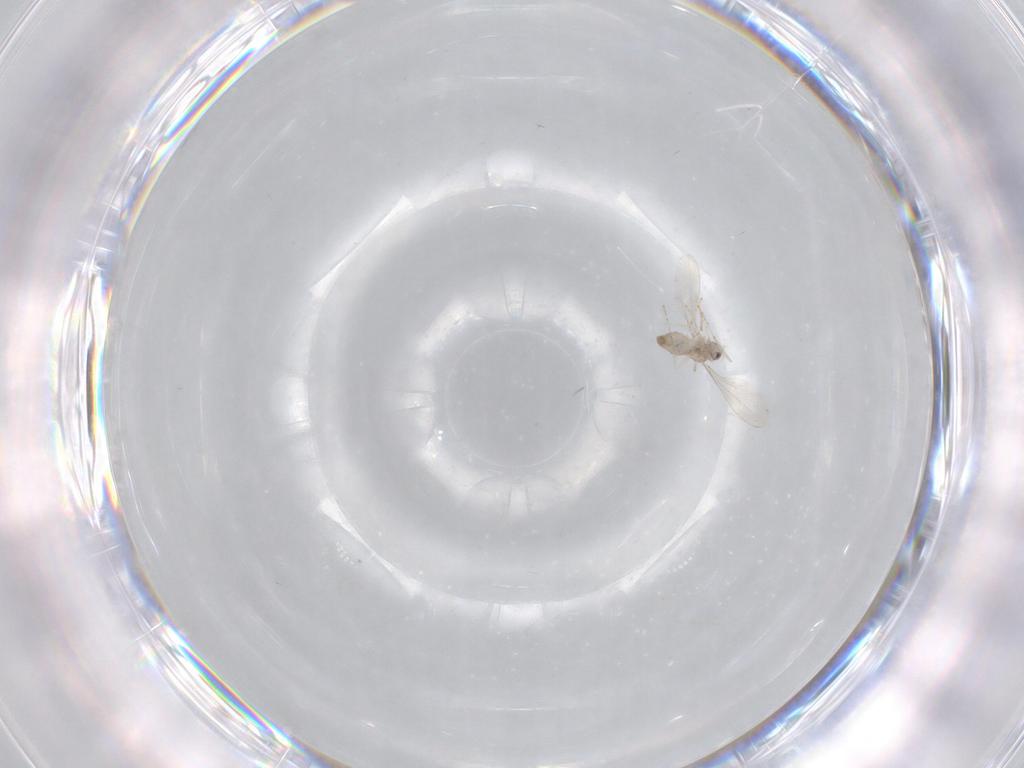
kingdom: Animalia
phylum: Arthropoda
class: Insecta
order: Diptera
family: Cecidomyiidae
